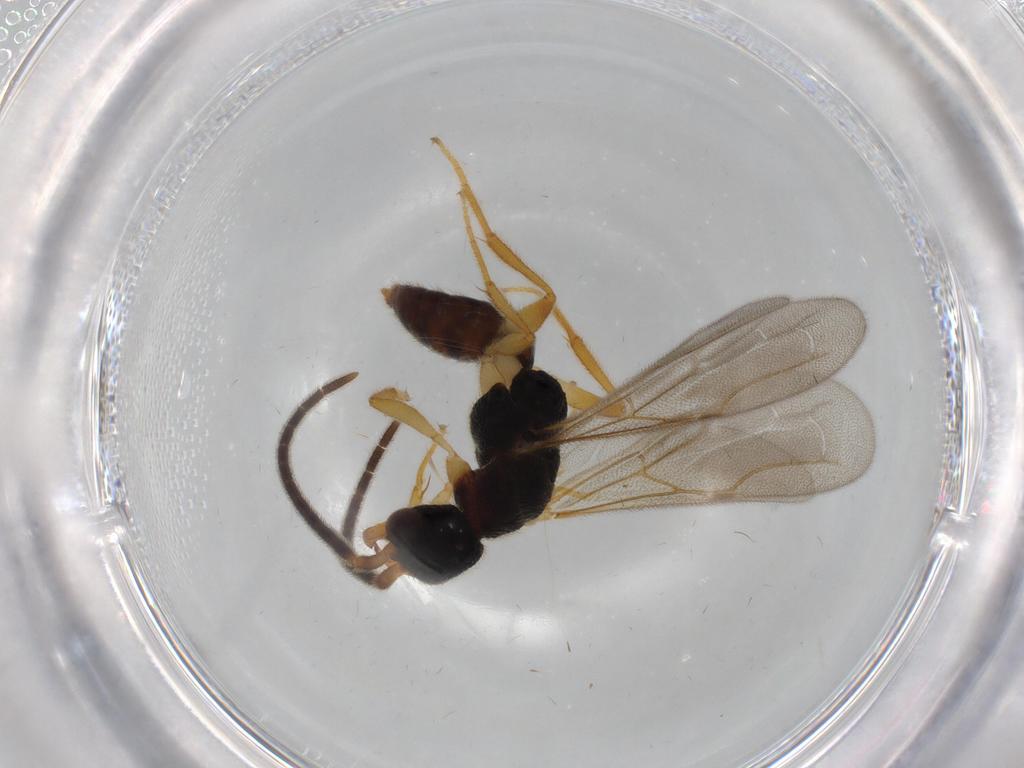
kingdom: Animalia
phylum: Arthropoda
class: Insecta
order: Hymenoptera
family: Bethylidae
